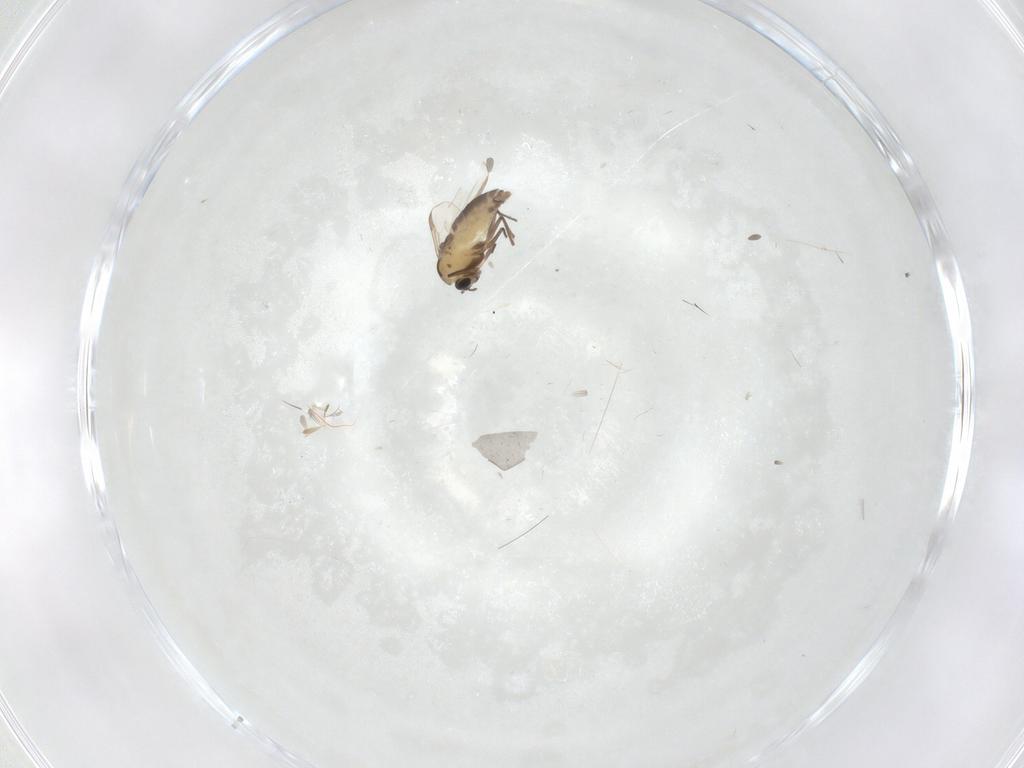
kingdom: Animalia
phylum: Arthropoda
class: Insecta
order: Diptera
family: Chironomidae
